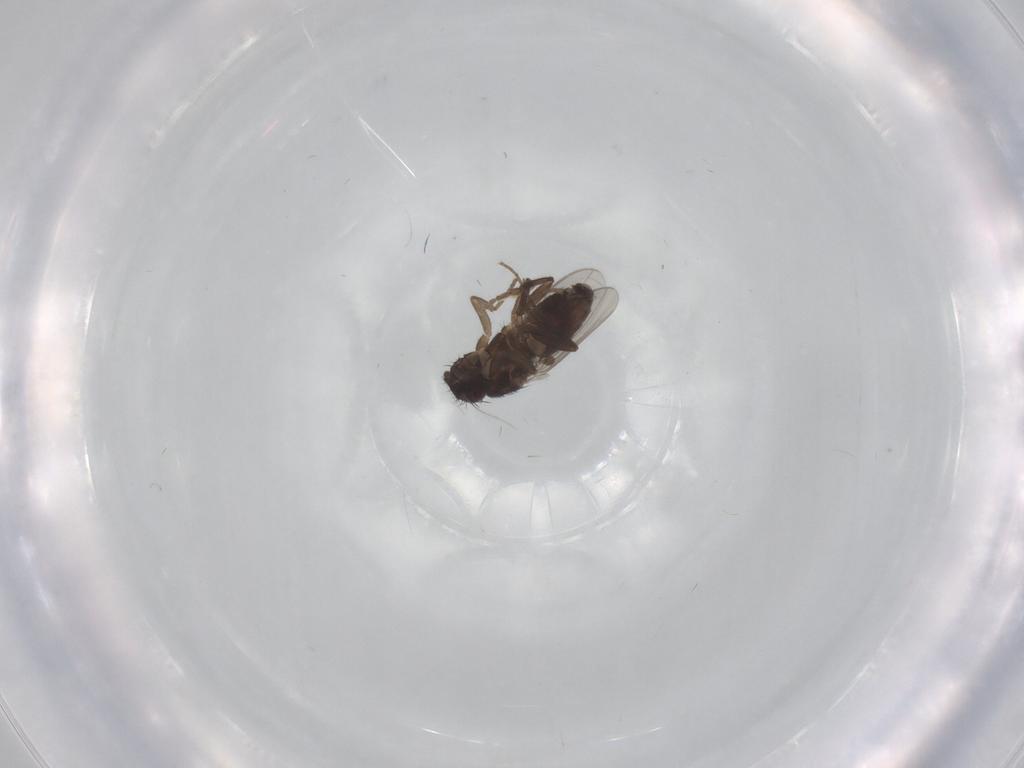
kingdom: Animalia
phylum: Arthropoda
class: Insecta
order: Diptera
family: Sphaeroceridae
